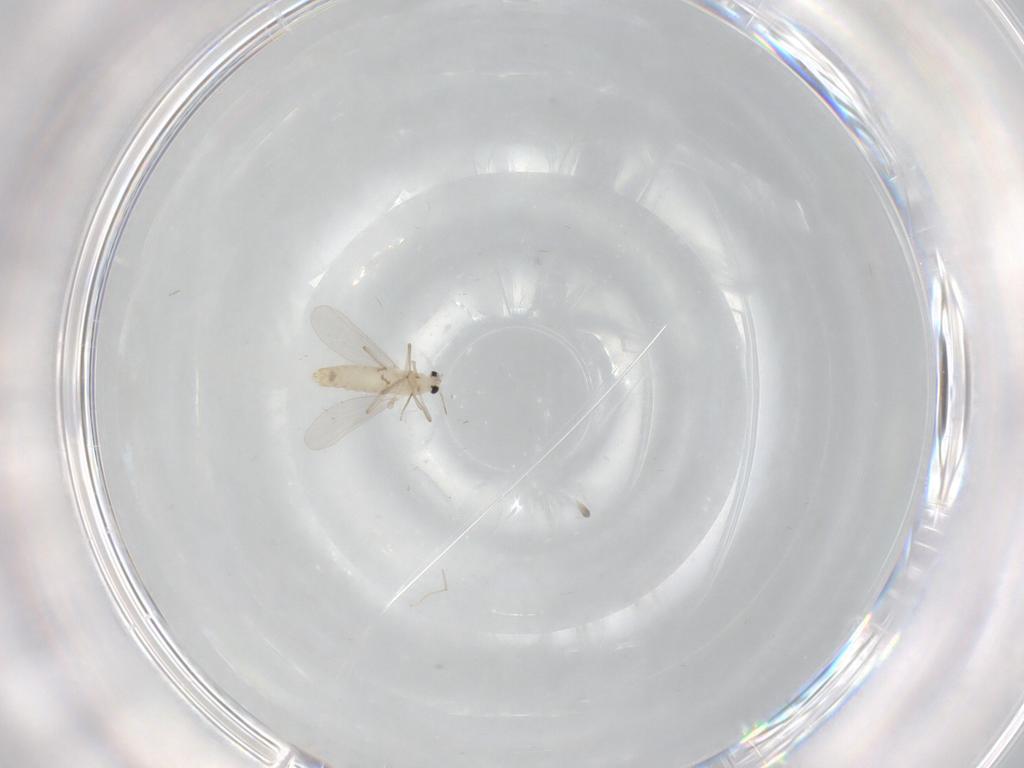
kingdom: Animalia
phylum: Arthropoda
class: Insecta
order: Diptera
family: Chironomidae
